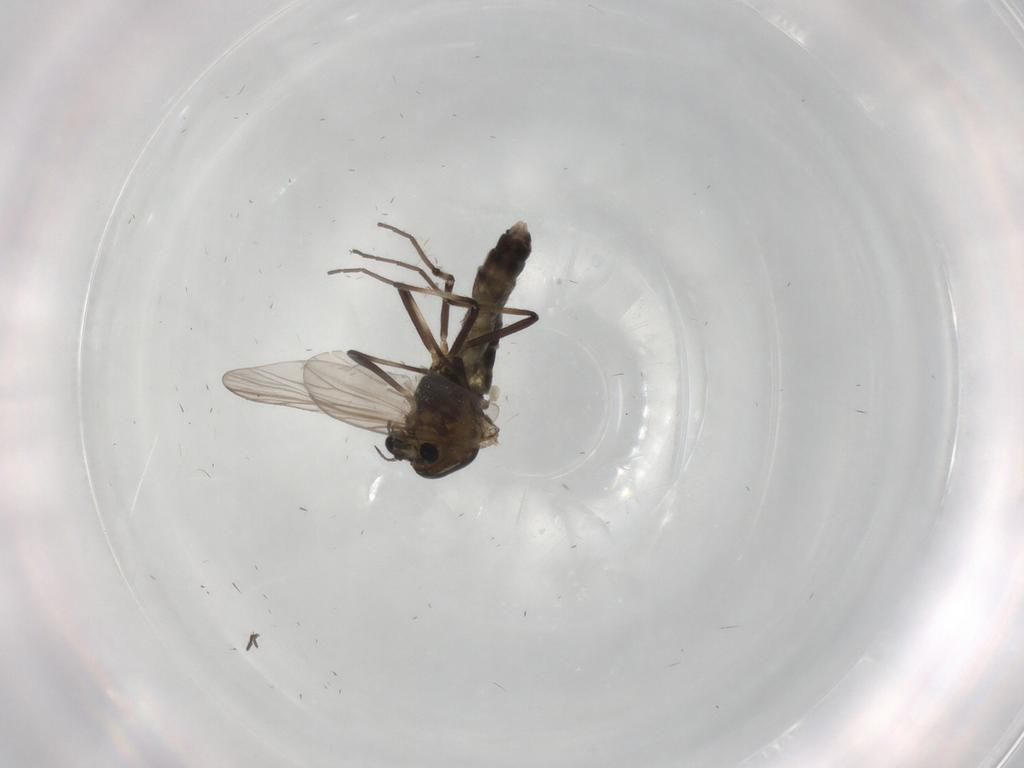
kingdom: Animalia
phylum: Arthropoda
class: Insecta
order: Diptera
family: Chironomidae
